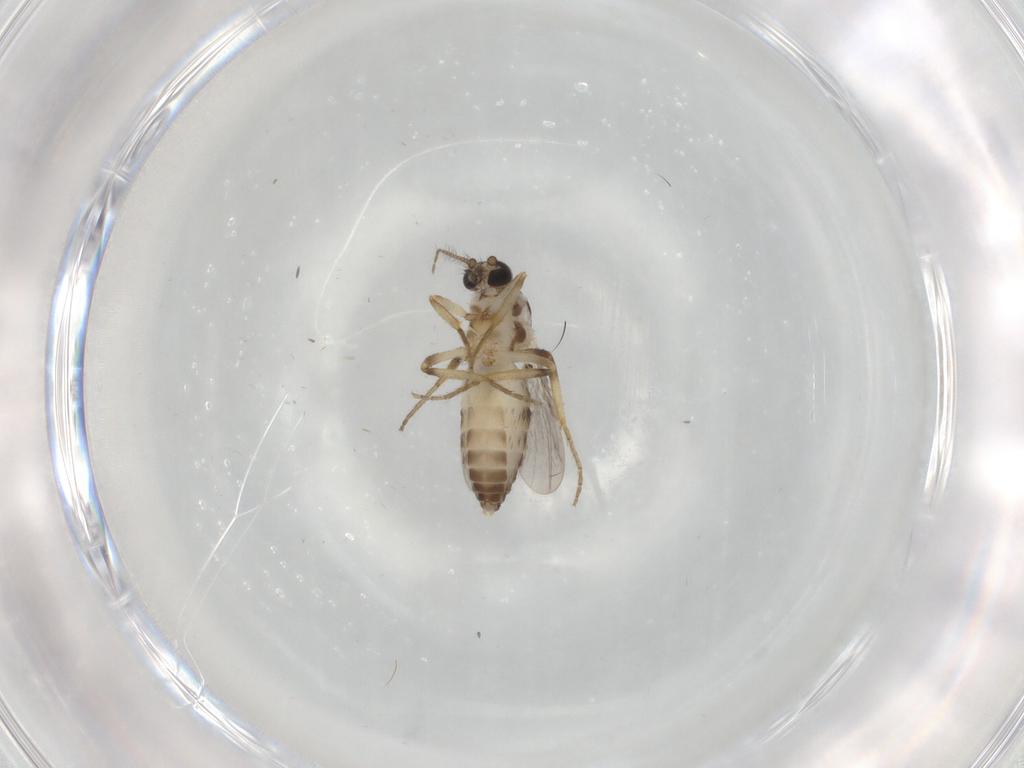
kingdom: Animalia
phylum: Arthropoda
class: Insecta
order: Diptera
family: Ceratopogonidae
